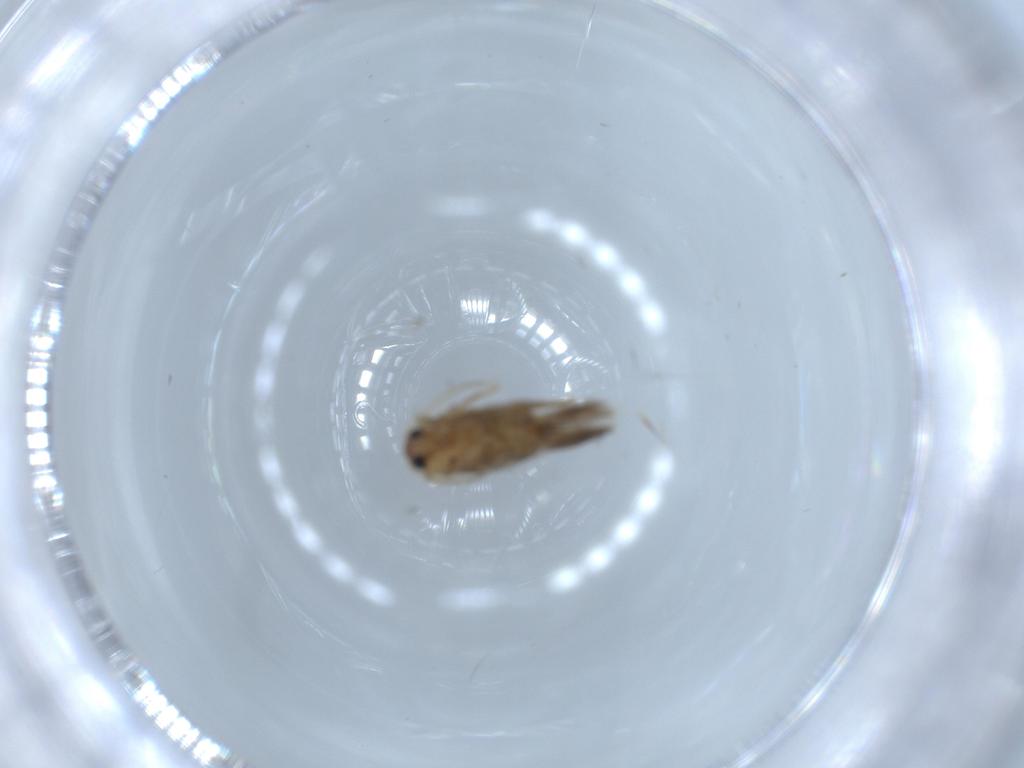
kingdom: Animalia
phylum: Arthropoda
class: Insecta
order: Lepidoptera
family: Nepticulidae
